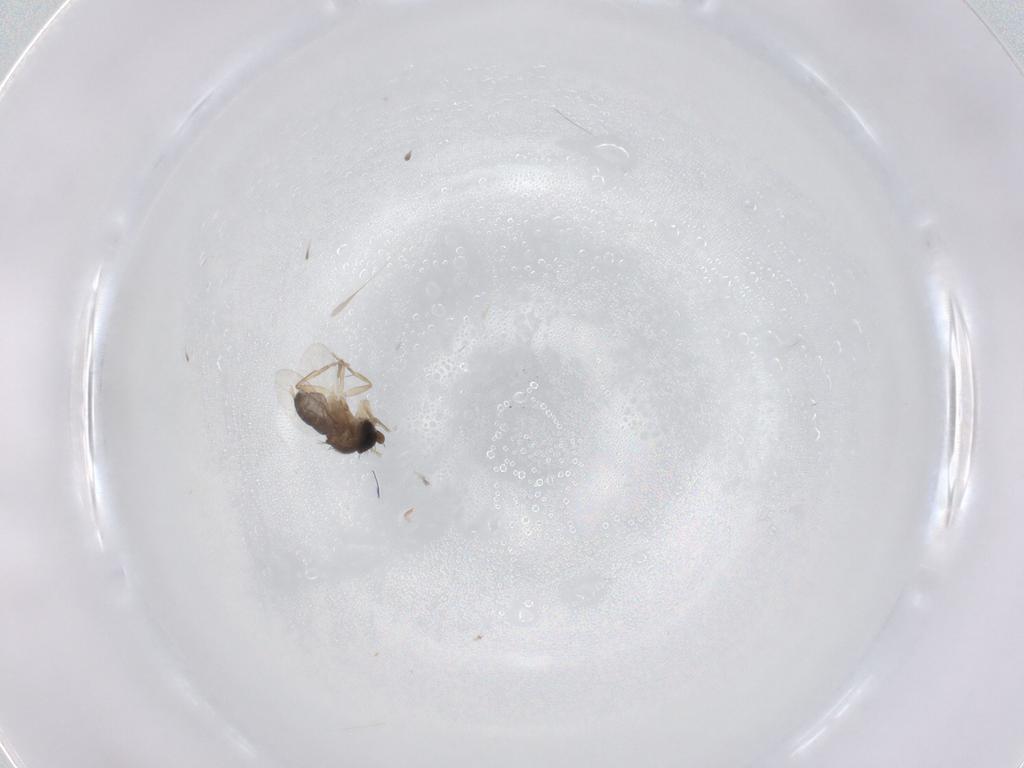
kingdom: Animalia
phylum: Arthropoda
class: Insecta
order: Diptera
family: Phoridae
